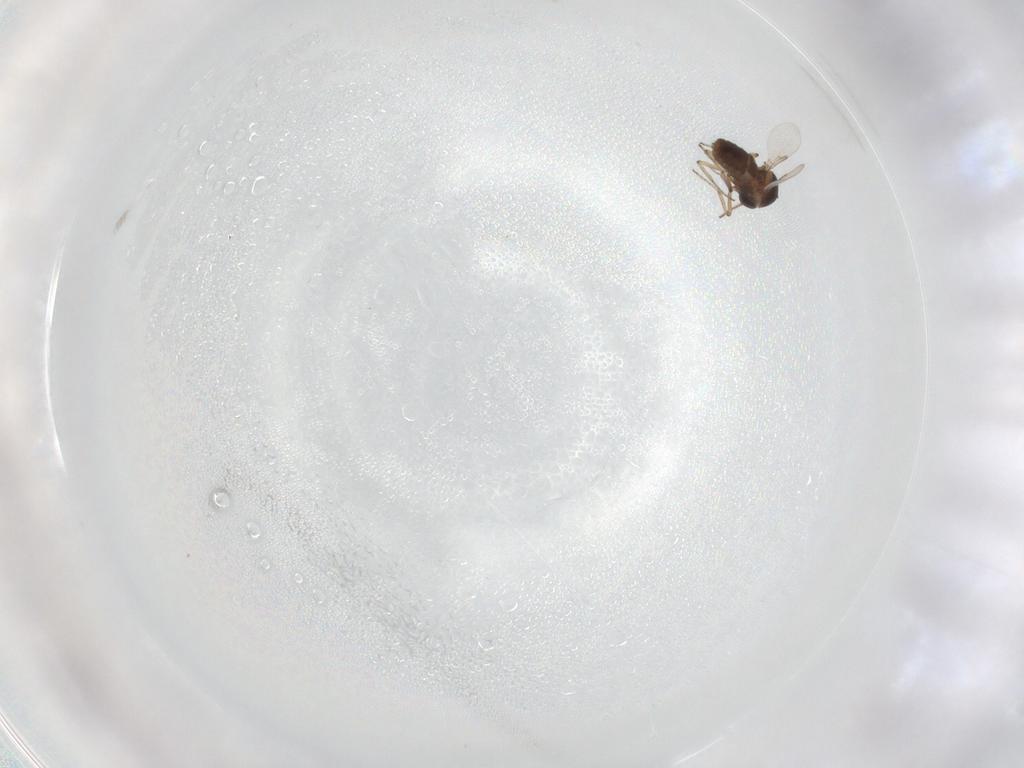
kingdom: Animalia
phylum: Arthropoda
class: Insecta
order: Diptera
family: Ceratopogonidae
